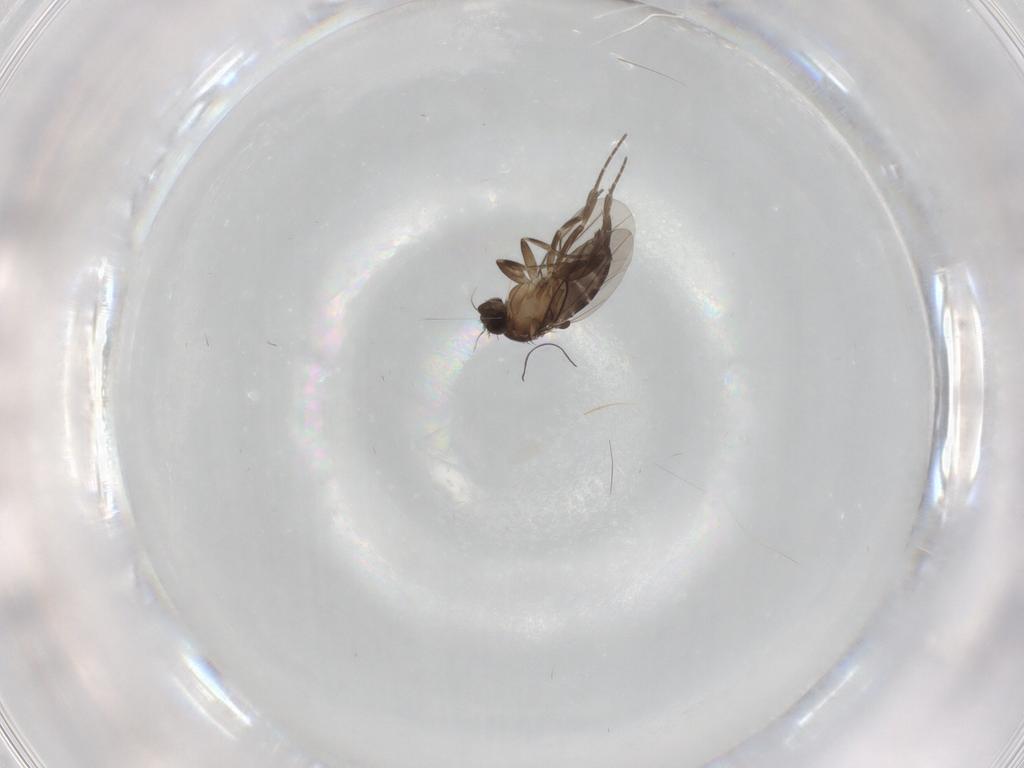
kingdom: Animalia
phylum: Arthropoda
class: Insecta
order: Diptera
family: Phoridae
